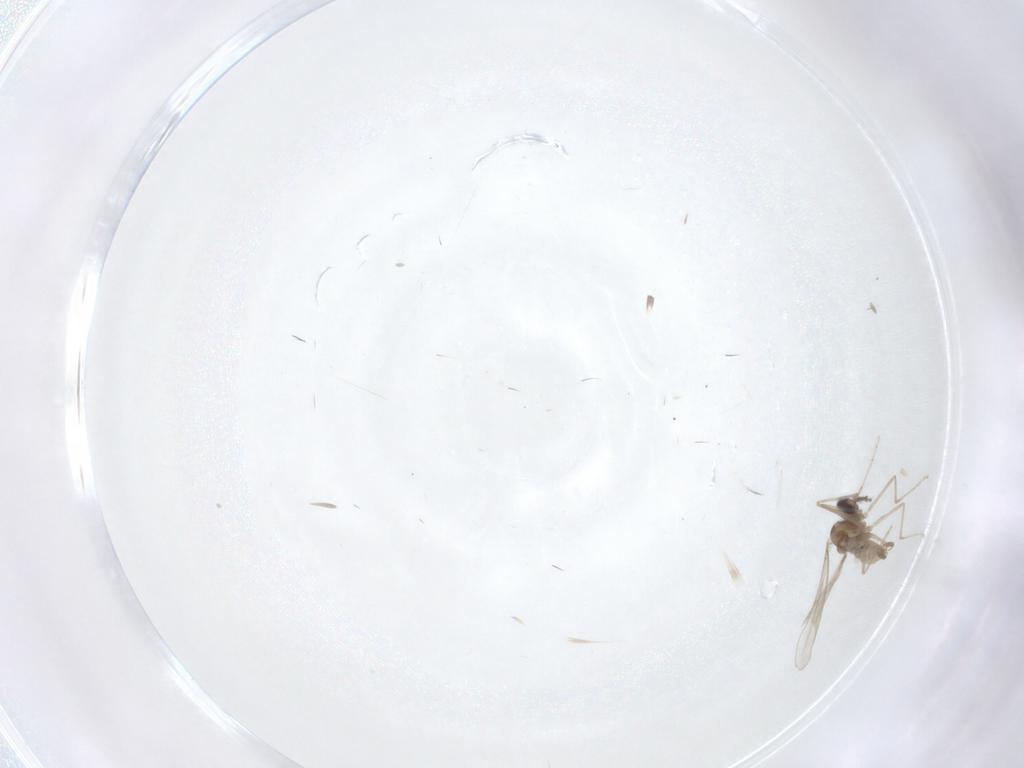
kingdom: Animalia
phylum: Arthropoda
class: Insecta
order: Diptera
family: Cecidomyiidae
